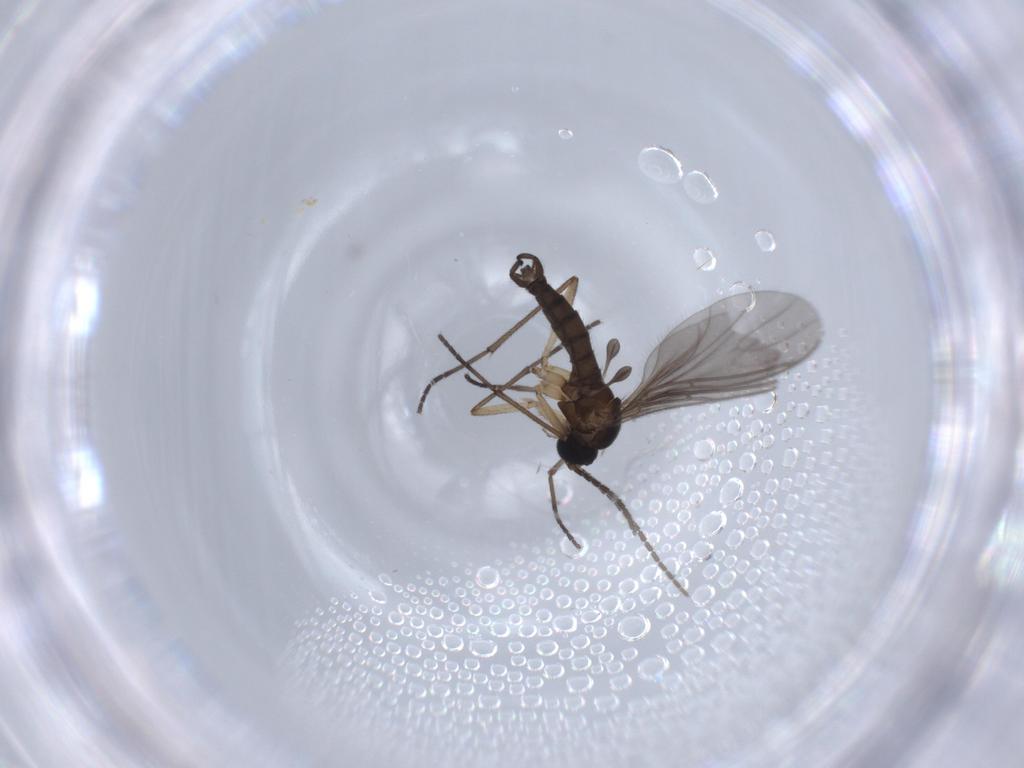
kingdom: Animalia
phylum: Arthropoda
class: Insecta
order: Diptera
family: Sciaridae
